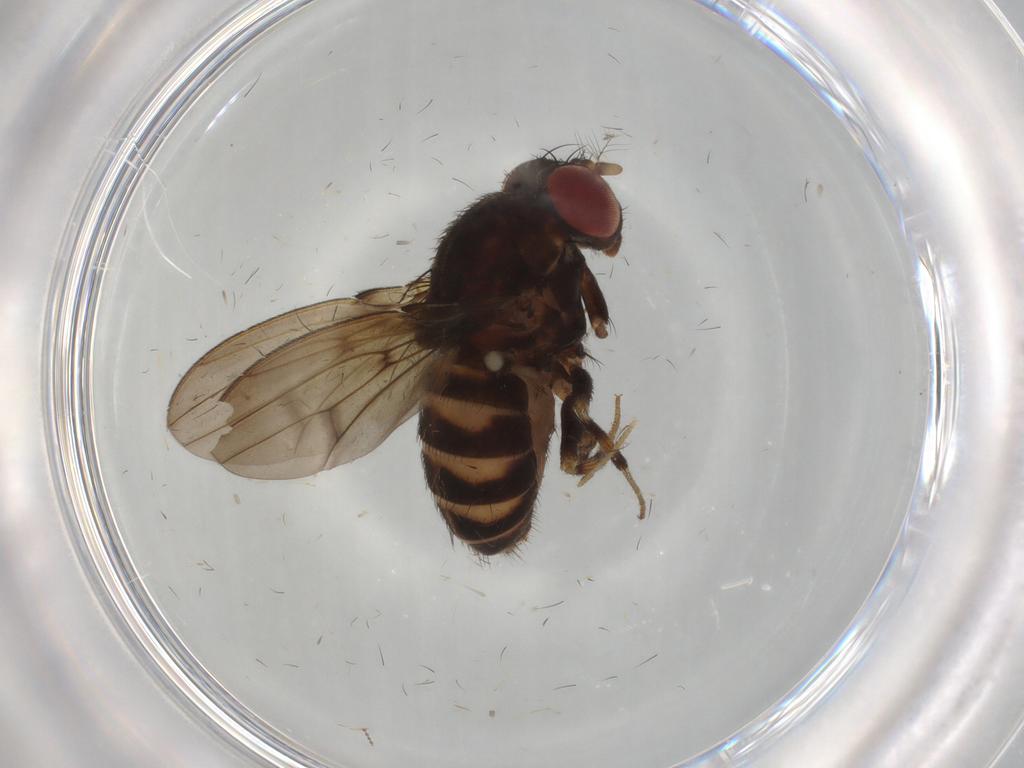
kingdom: Animalia
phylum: Arthropoda
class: Insecta
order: Diptera
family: Drosophilidae
